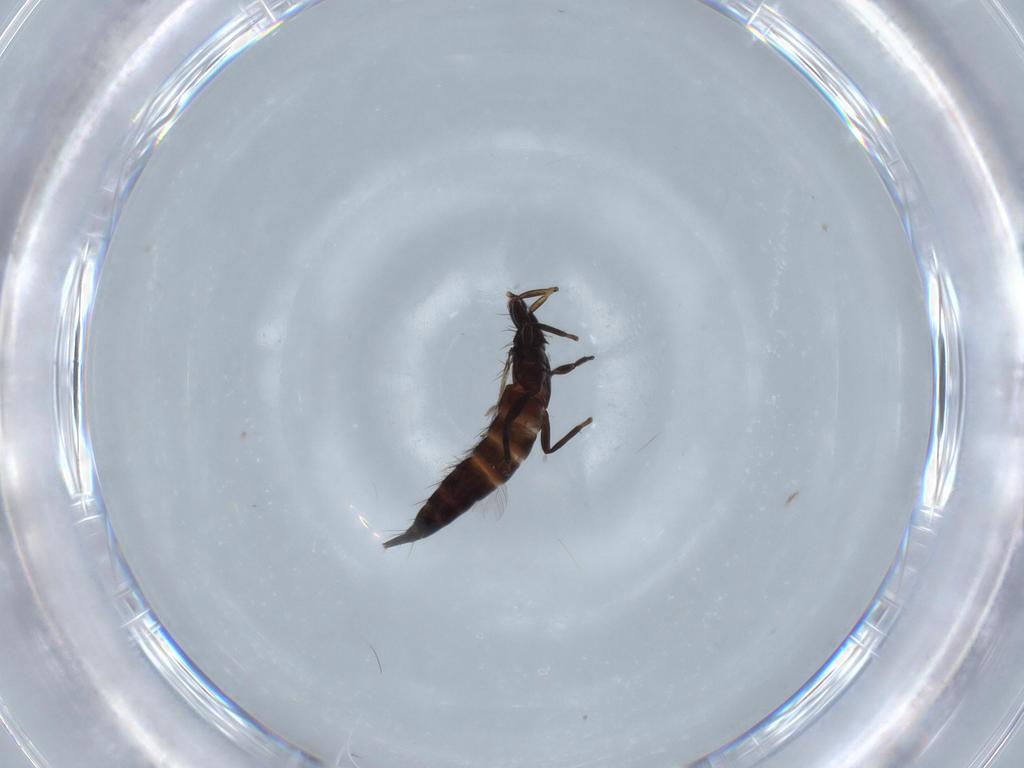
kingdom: Animalia
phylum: Arthropoda
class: Insecta
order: Thysanoptera
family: Phlaeothripidae
